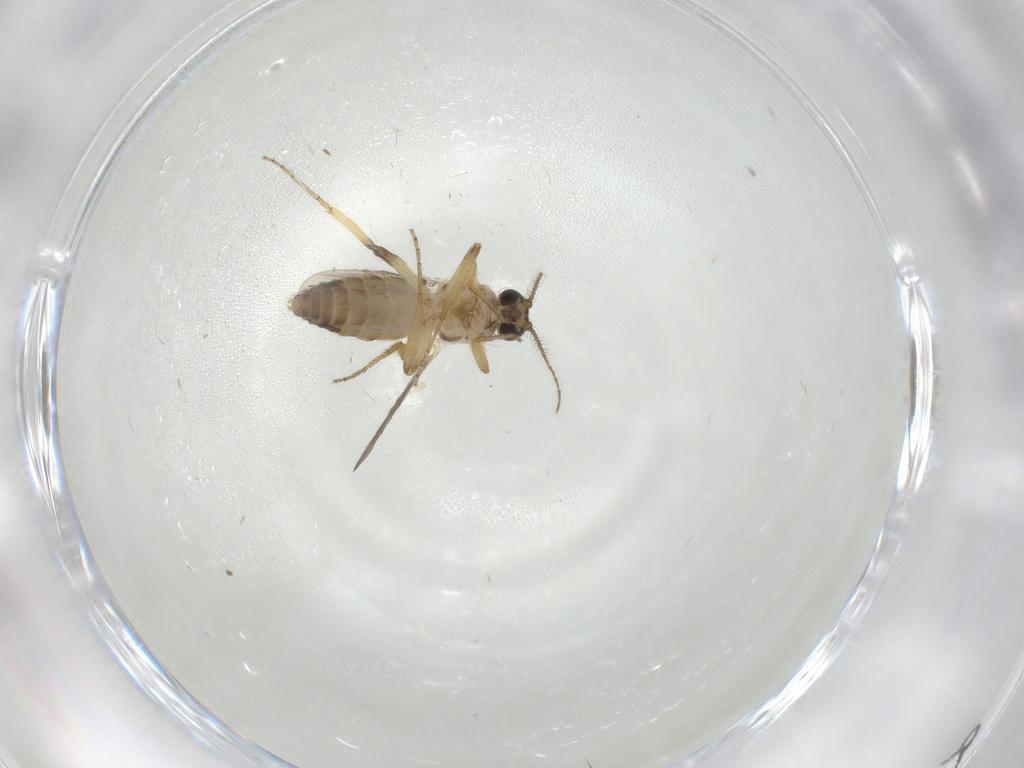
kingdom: Animalia
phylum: Arthropoda
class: Insecta
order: Diptera
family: Ceratopogonidae
